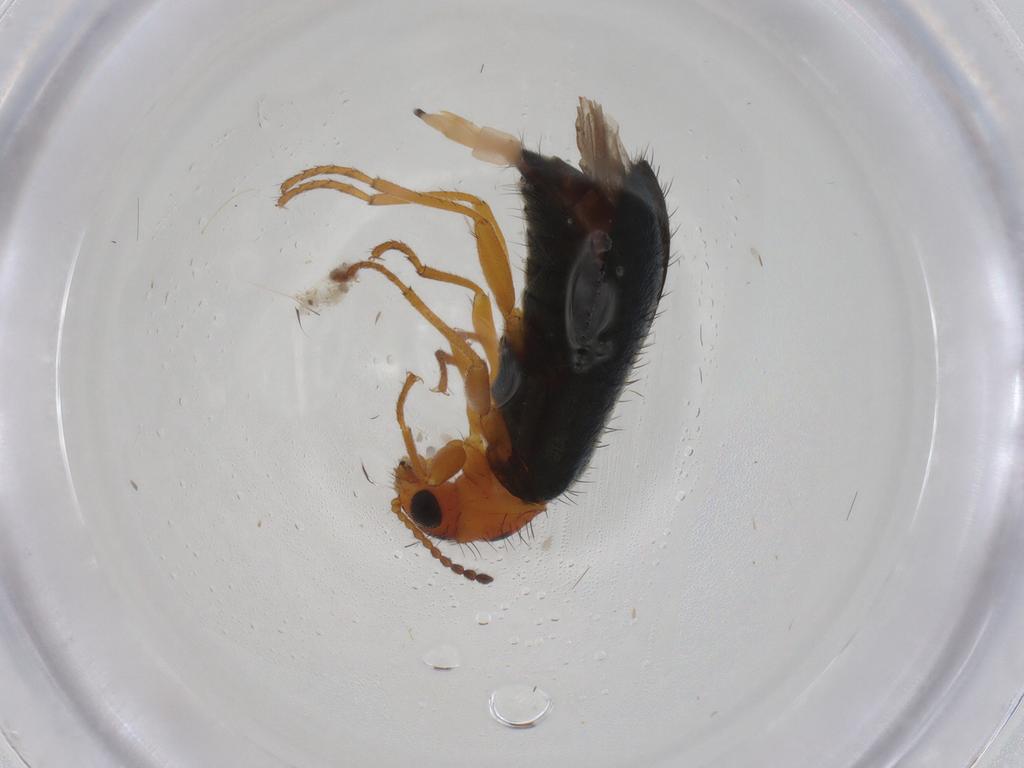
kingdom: Animalia
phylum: Arthropoda
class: Insecta
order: Coleoptera
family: Melyridae
